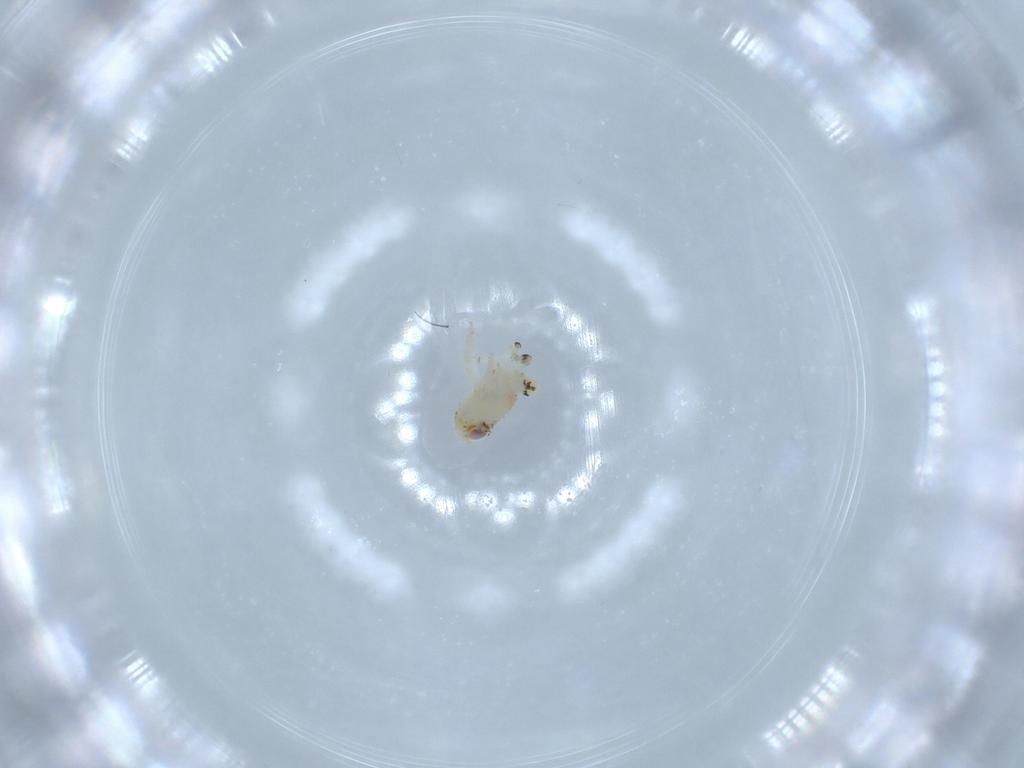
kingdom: Animalia
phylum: Arthropoda
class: Insecta
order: Hemiptera
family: Nogodinidae
